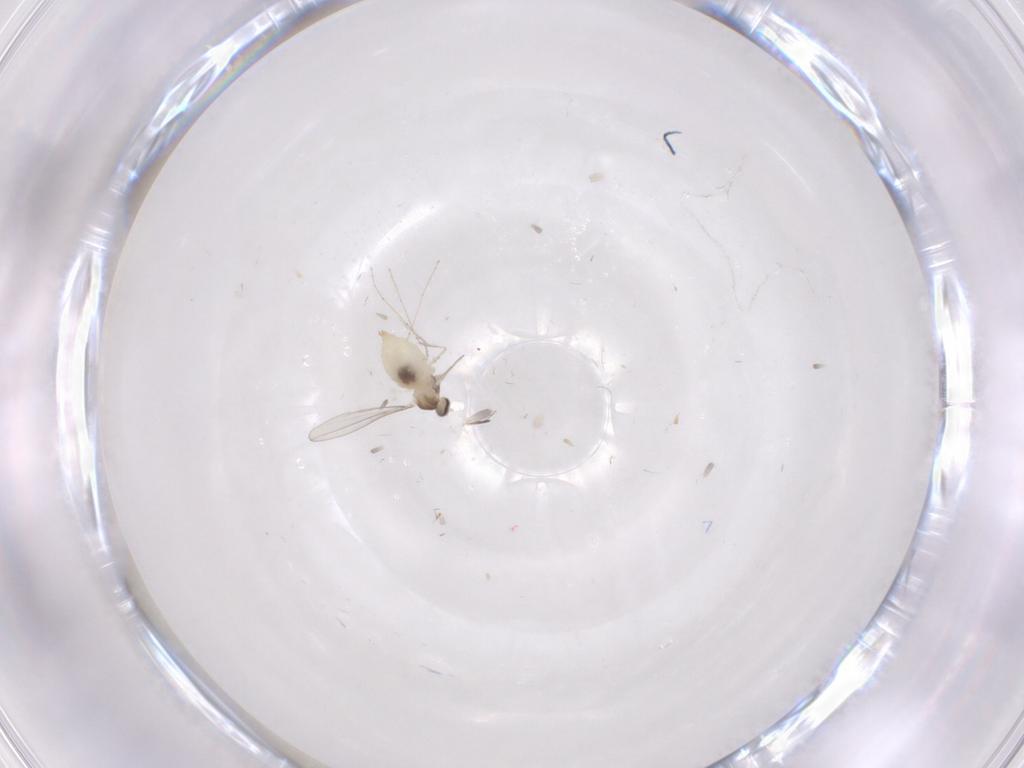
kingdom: Animalia
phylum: Arthropoda
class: Insecta
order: Diptera
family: Cecidomyiidae
